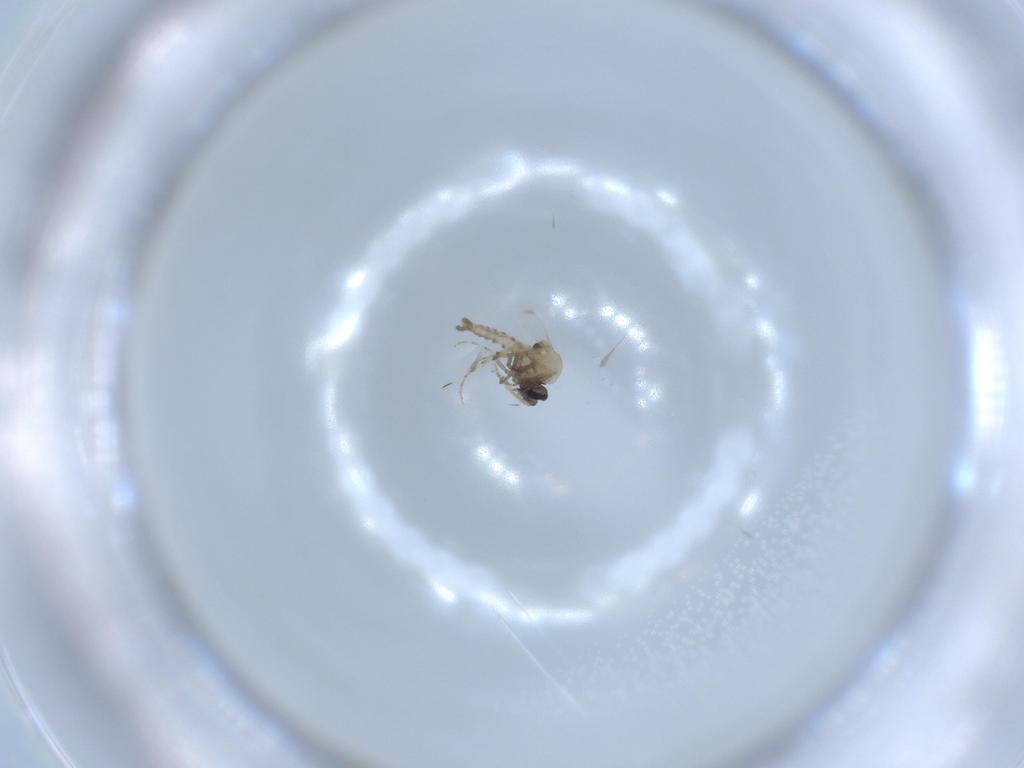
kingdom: Animalia
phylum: Arthropoda
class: Insecta
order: Diptera
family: Ceratopogonidae
